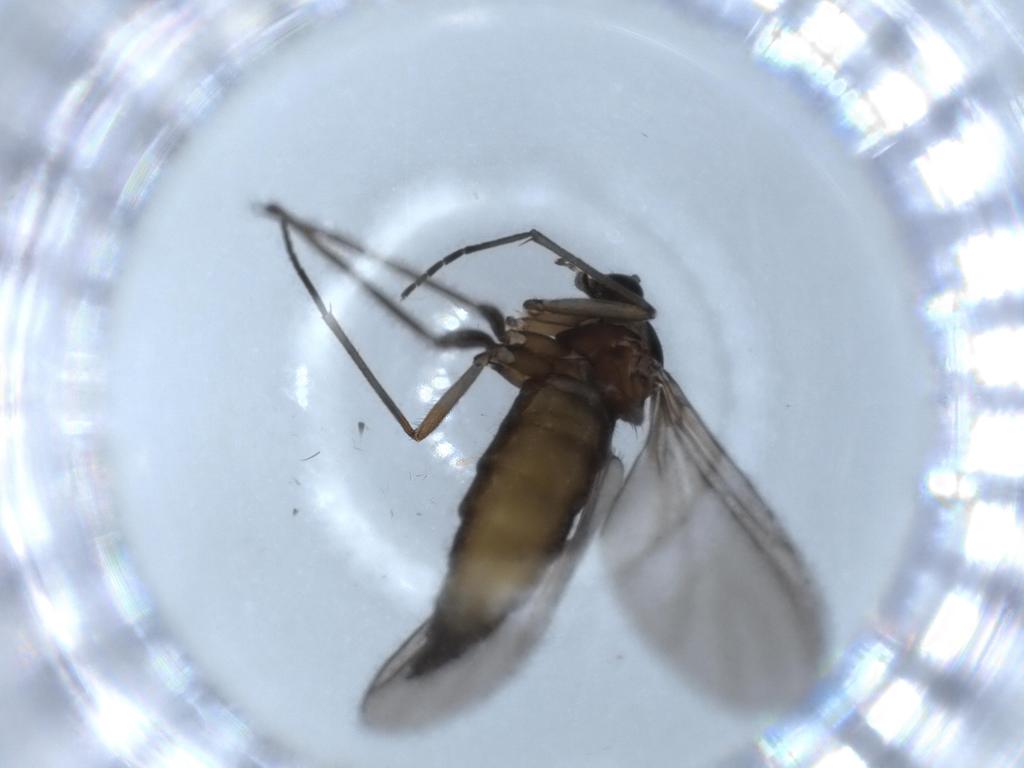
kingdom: Animalia
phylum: Arthropoda
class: Insecta
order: Diptera
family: Sciaridae
